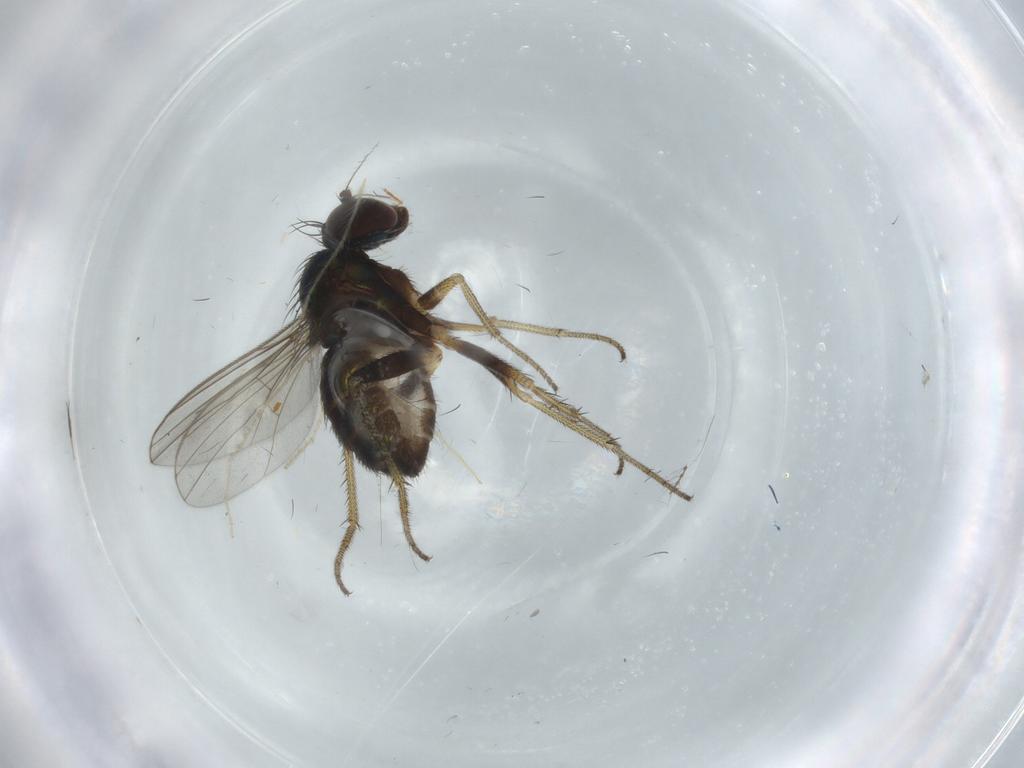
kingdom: Animalia
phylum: Arthropoda
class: Insecta
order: Diptera
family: Chironomidae
